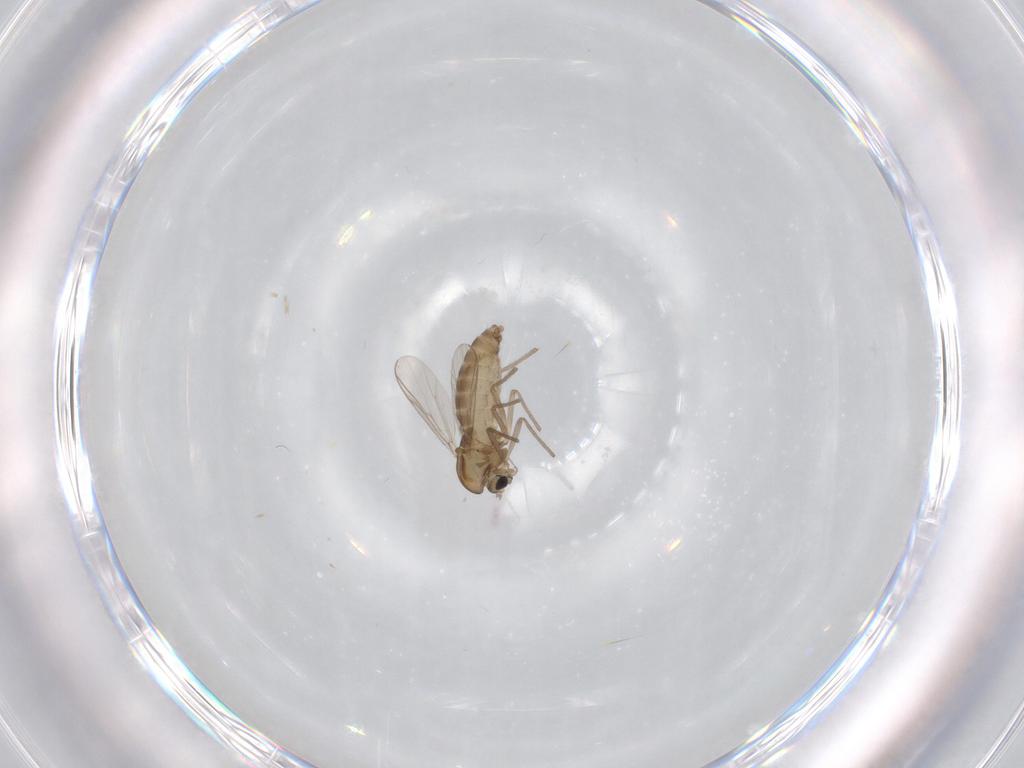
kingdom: Animalia
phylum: Arthropoda
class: Insecta
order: Diptera
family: Chironomidae
